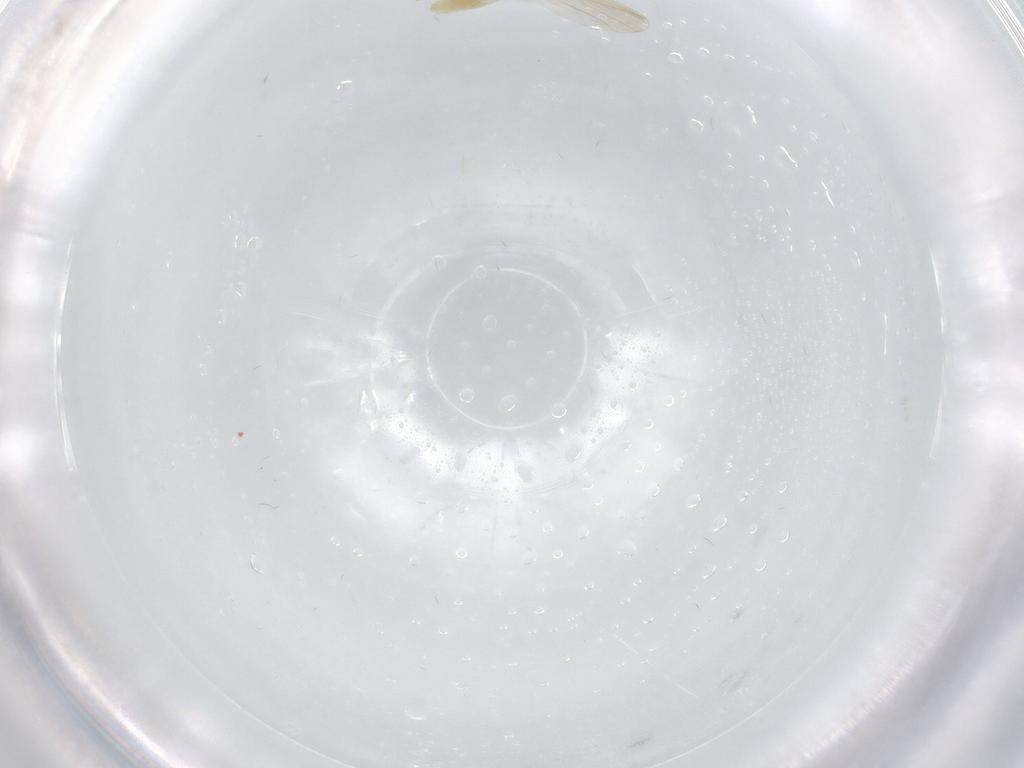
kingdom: Animalia
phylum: Arthropoda
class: Insecta
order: Diptera
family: Chironomidae
